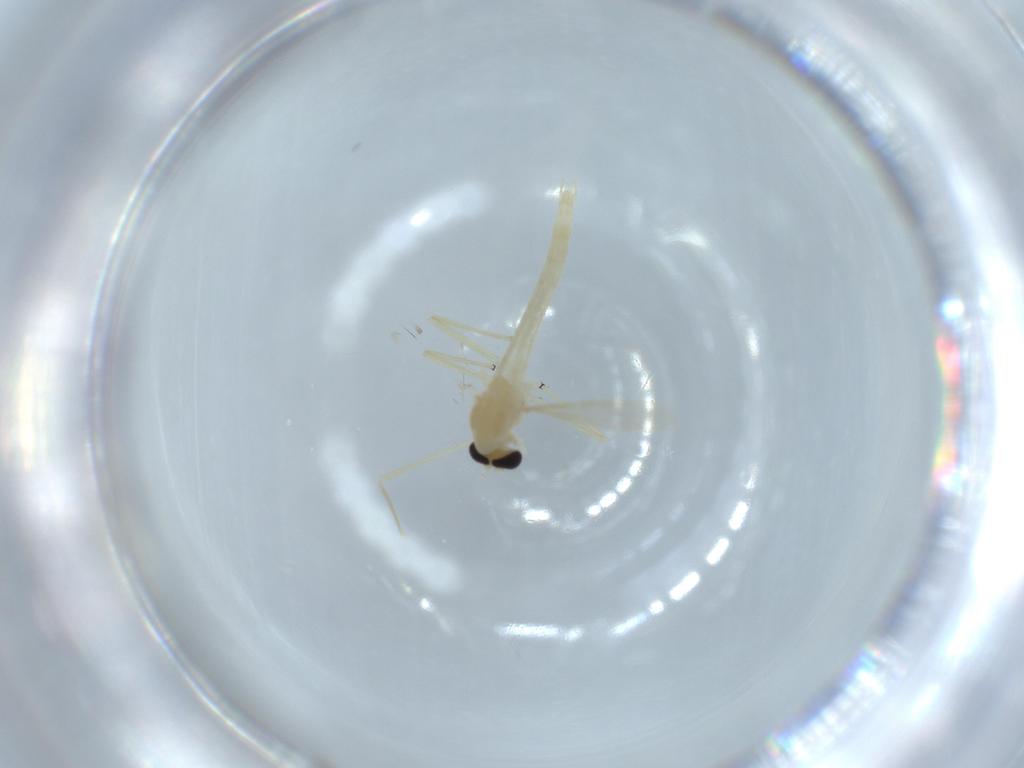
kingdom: Animalia
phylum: Arthropoda
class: Insecta
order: Diptera
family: Chironomidae
